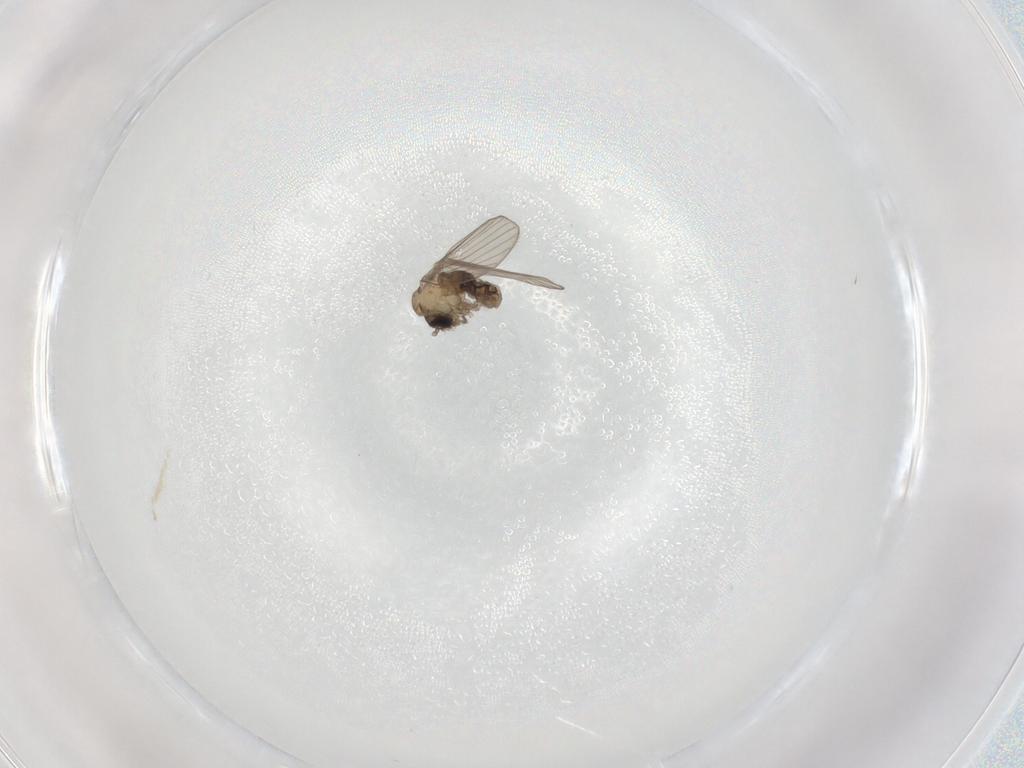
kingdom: Animalia
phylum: Arthropoda
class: Insecta
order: Diptera
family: Psychodidae
